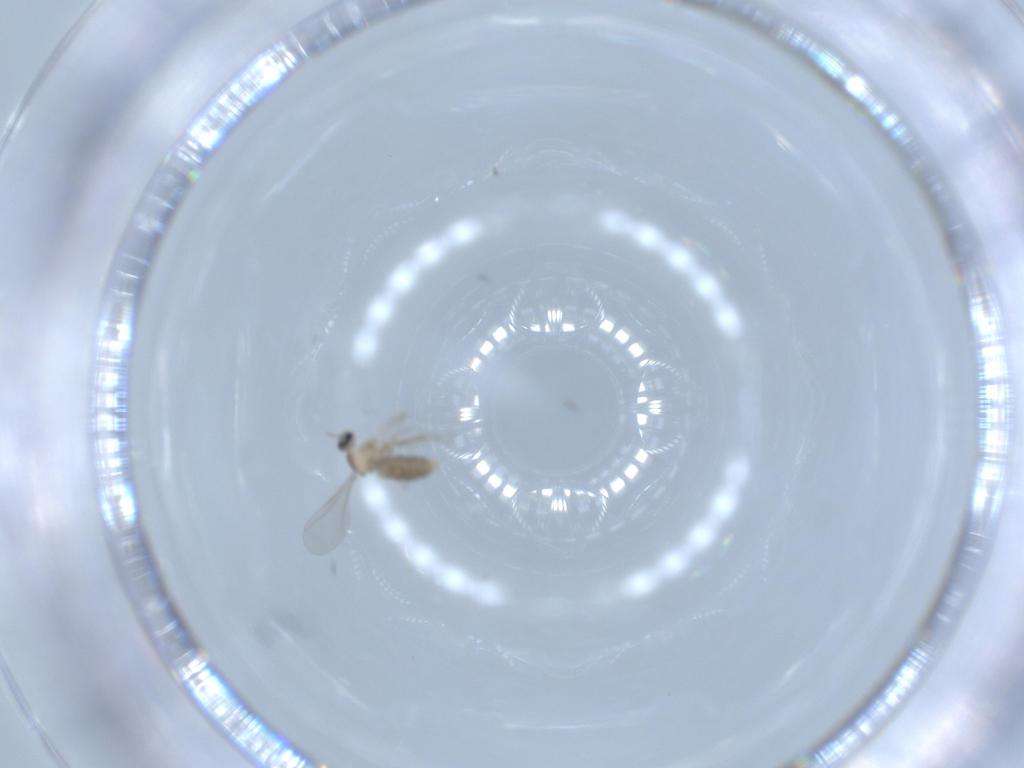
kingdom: Animalia
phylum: Arthropoda
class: Insecta
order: Diptera
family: Cecidomyiidae
